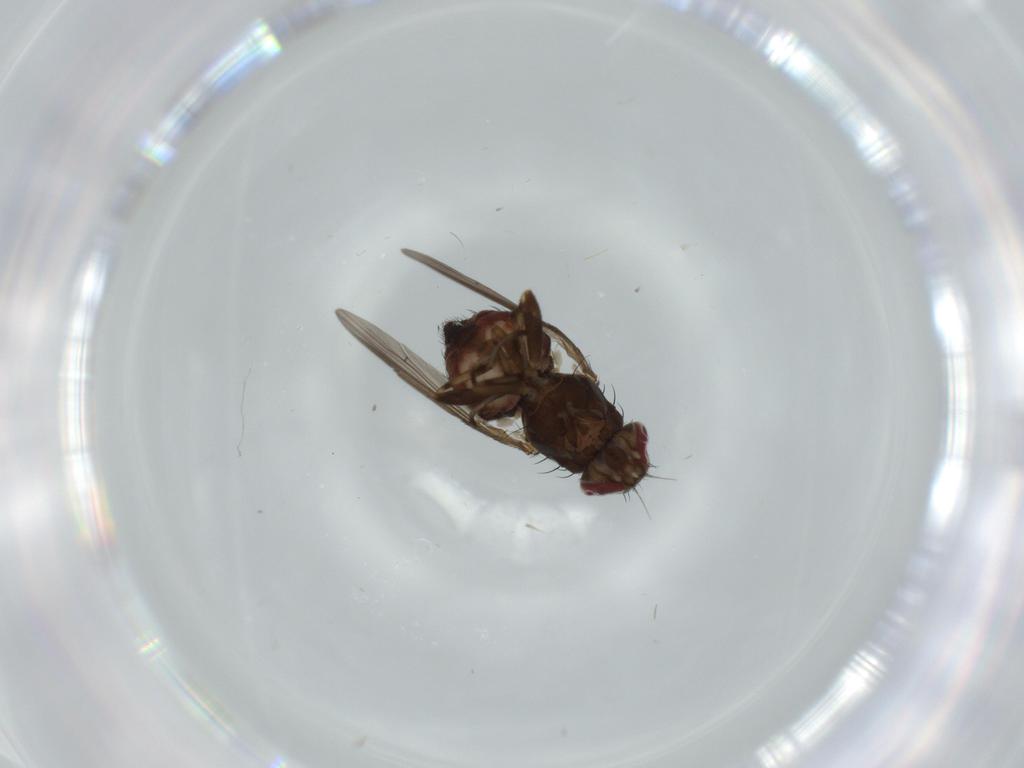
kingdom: Animalia
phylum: Arthropoda
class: Insecta
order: Diptera
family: Heleomyzidae
